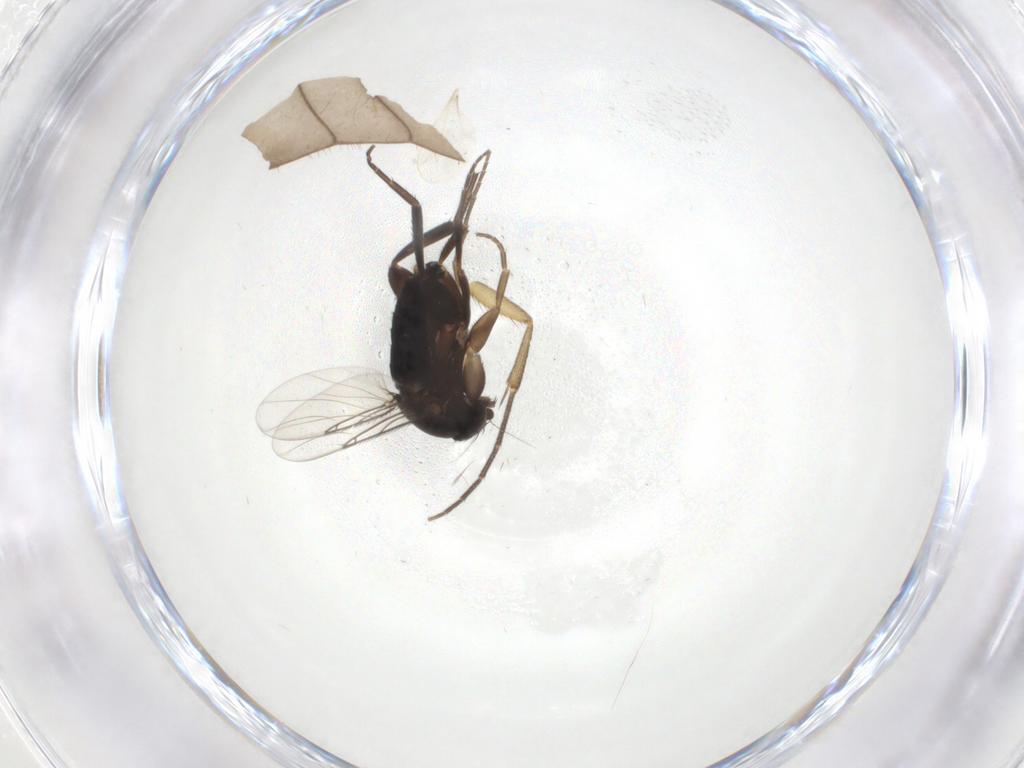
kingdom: Animalia
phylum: Arthropoda
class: Insecta
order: Diptera
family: Phoridae
